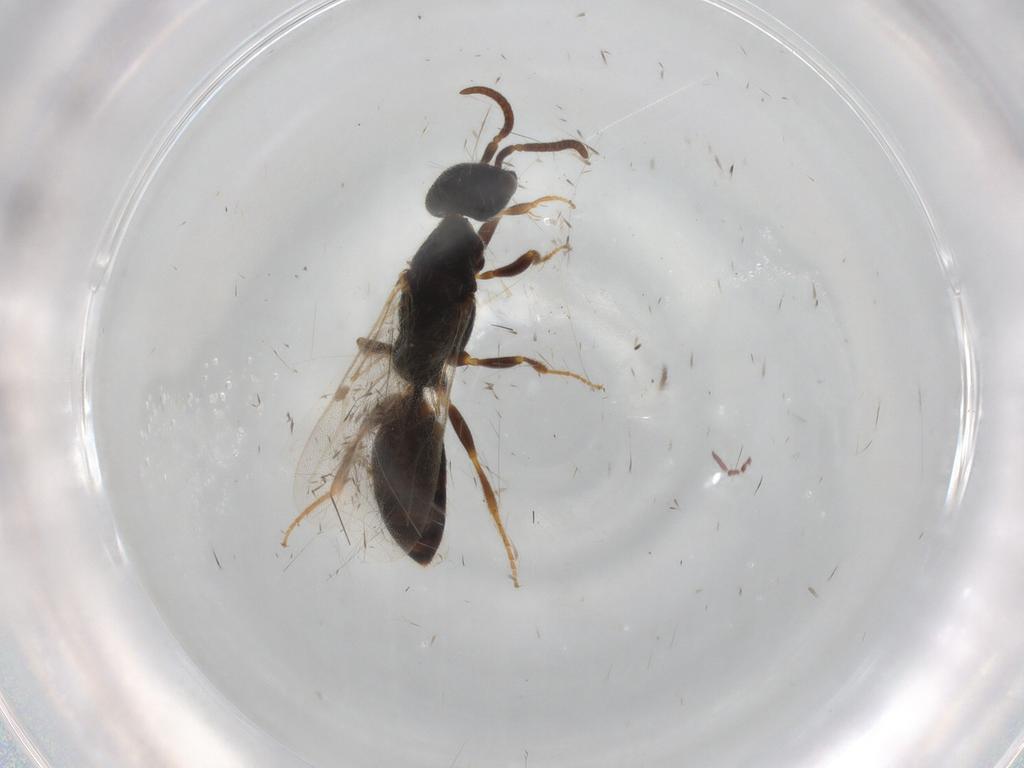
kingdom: Animalia
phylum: Arthropoda
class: Insecta
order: Hymenoptera
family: Bethylidae
